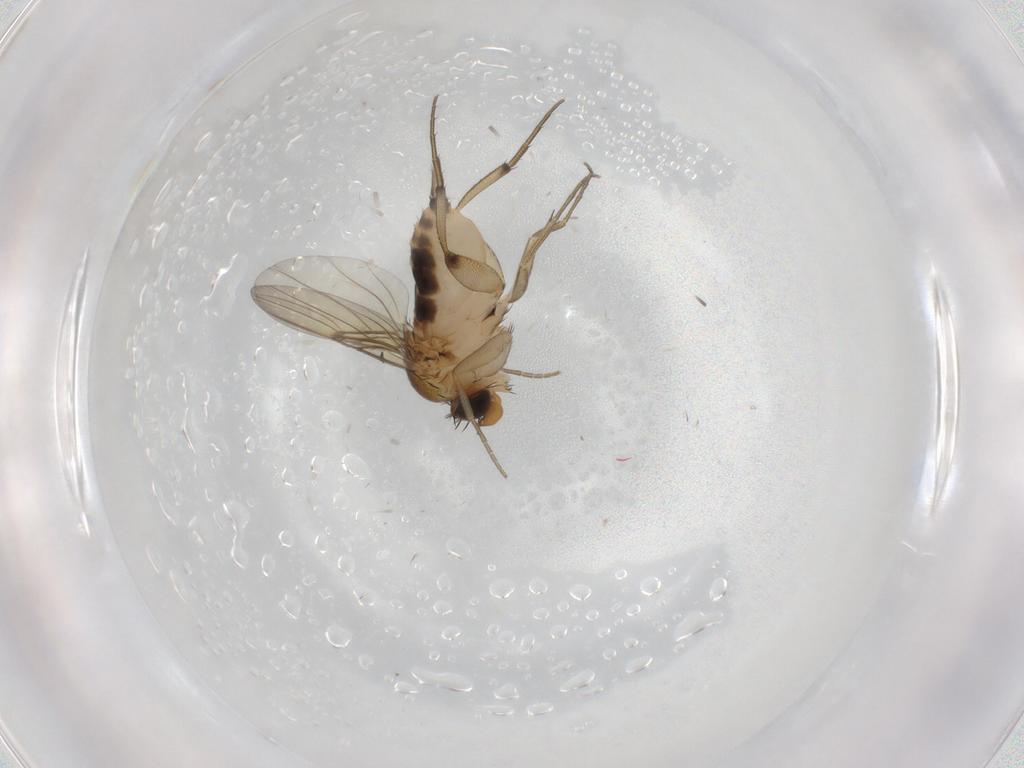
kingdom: Animalia
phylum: Arthropoda
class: Insecta
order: Diptera
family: Phoridae
